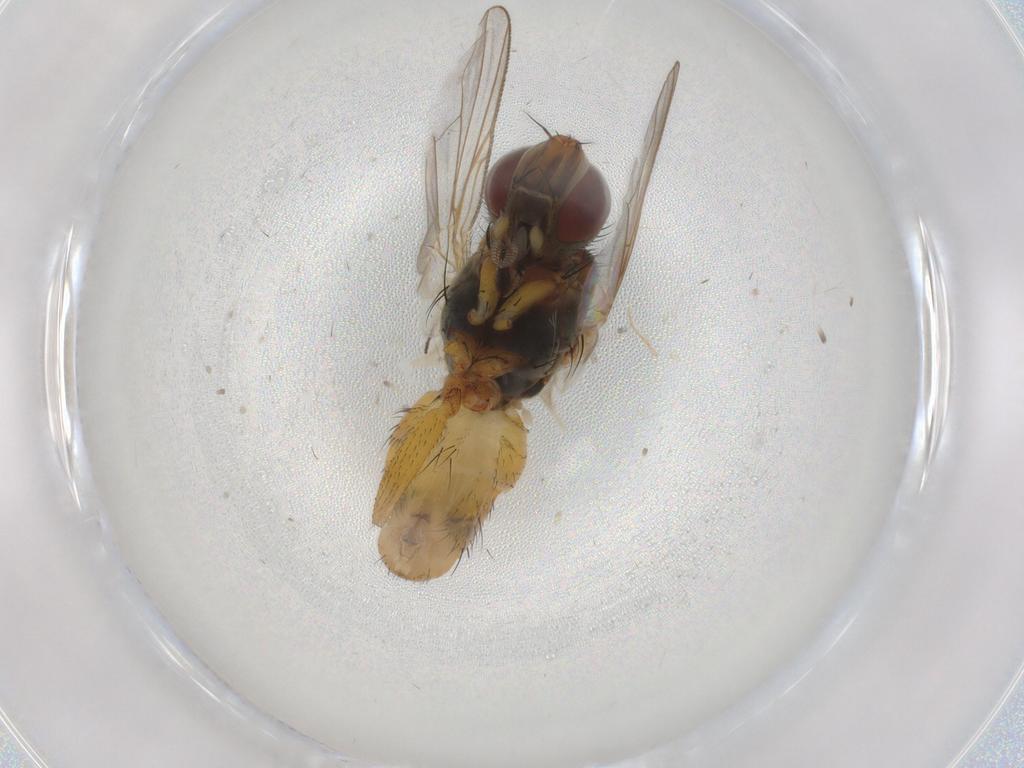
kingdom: Animalia
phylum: Arthropoda
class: Insecta
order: Diptera
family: Muscidae
